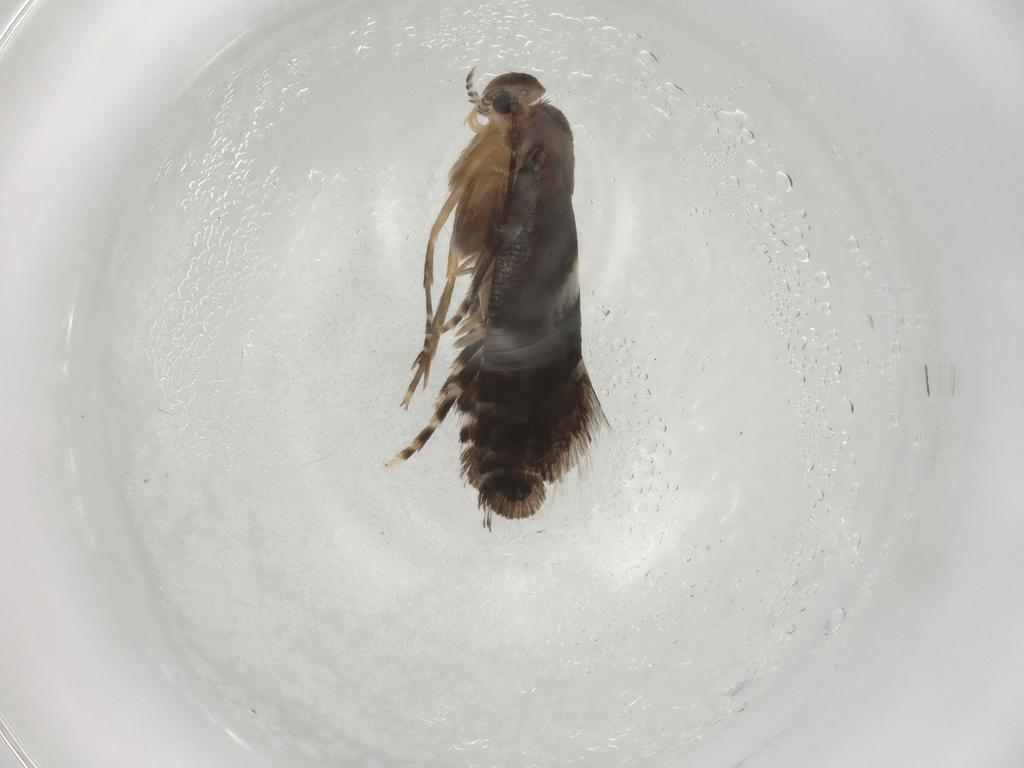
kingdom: Animalia
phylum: Arthropoda
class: Insecta
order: Lepidoptera
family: Glyphipterigidae
